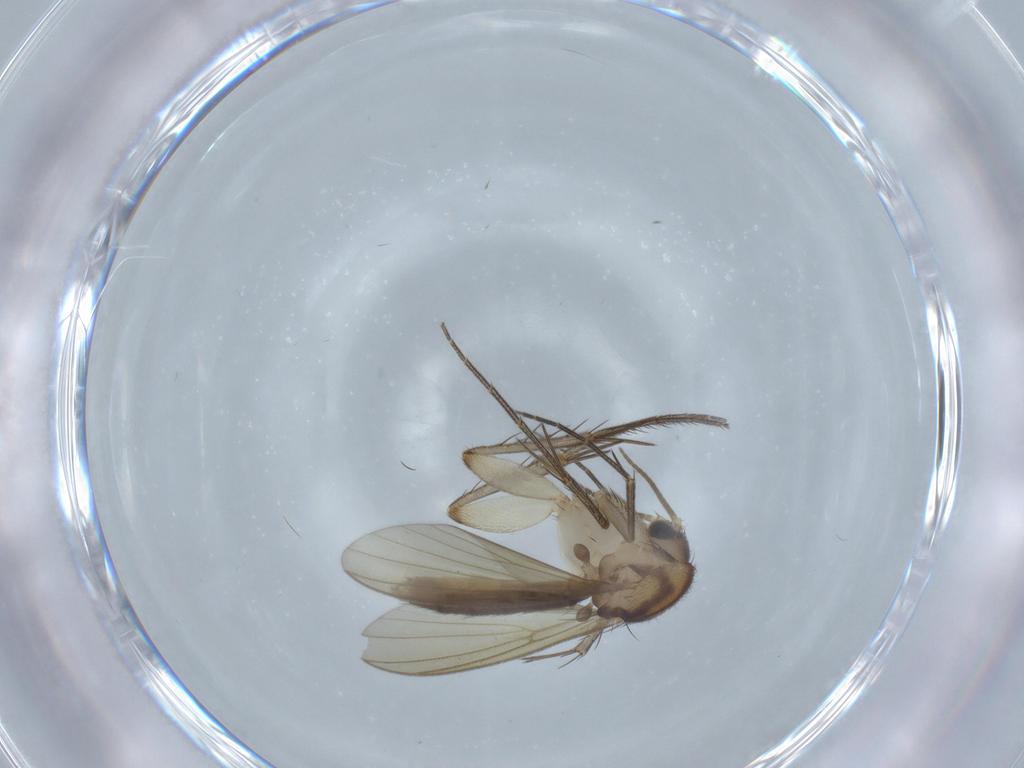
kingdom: Animalia
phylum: Arthropoda
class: Insecta
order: Diptera
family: Mycetophilidae
